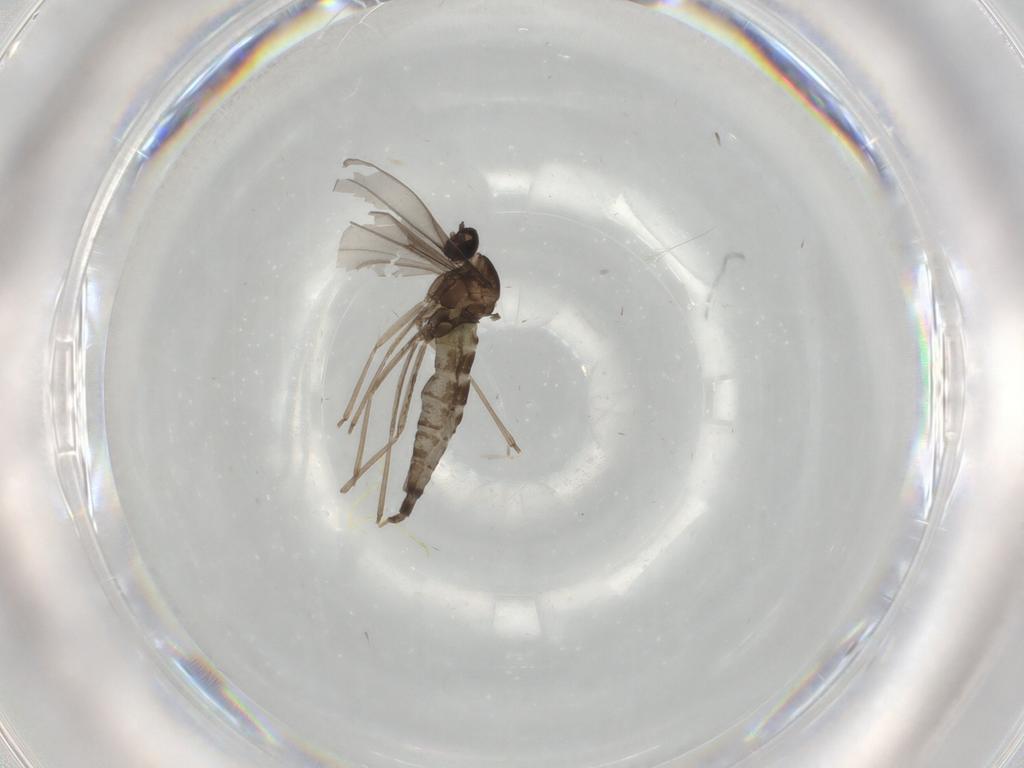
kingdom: Animalia
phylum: Arthropoda
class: Insecta
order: Diptera
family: Cecidomyiidae
